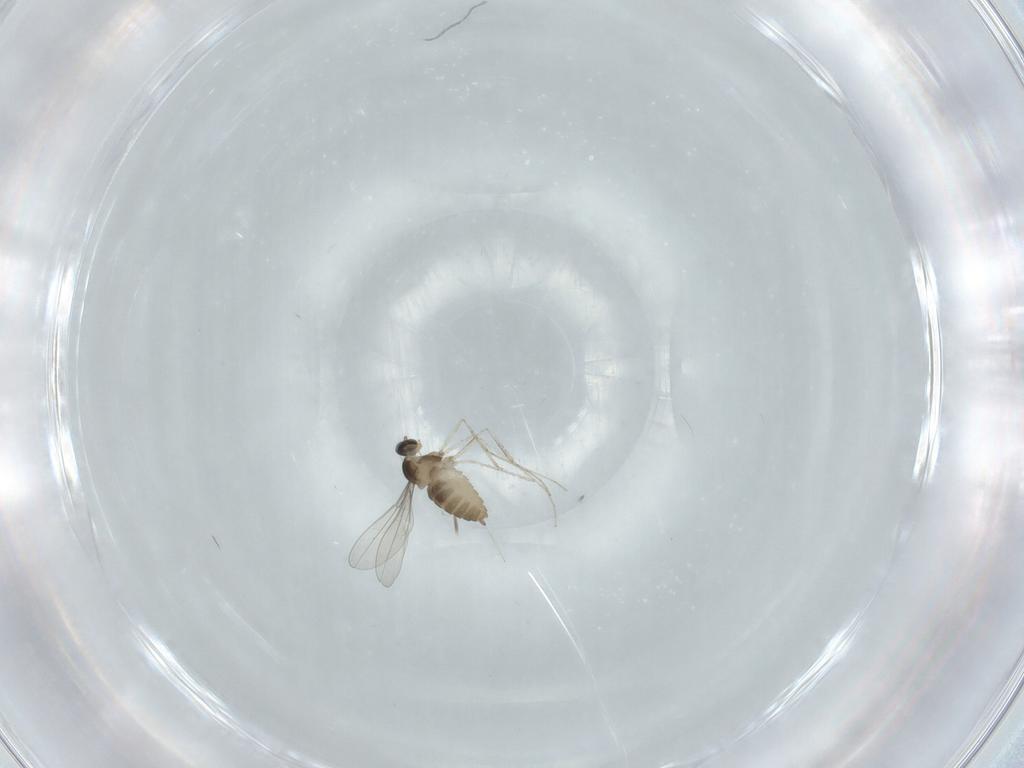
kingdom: Animalia
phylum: Arthropoda
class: Insecta
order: Diptera
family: Cecidomyiidae
